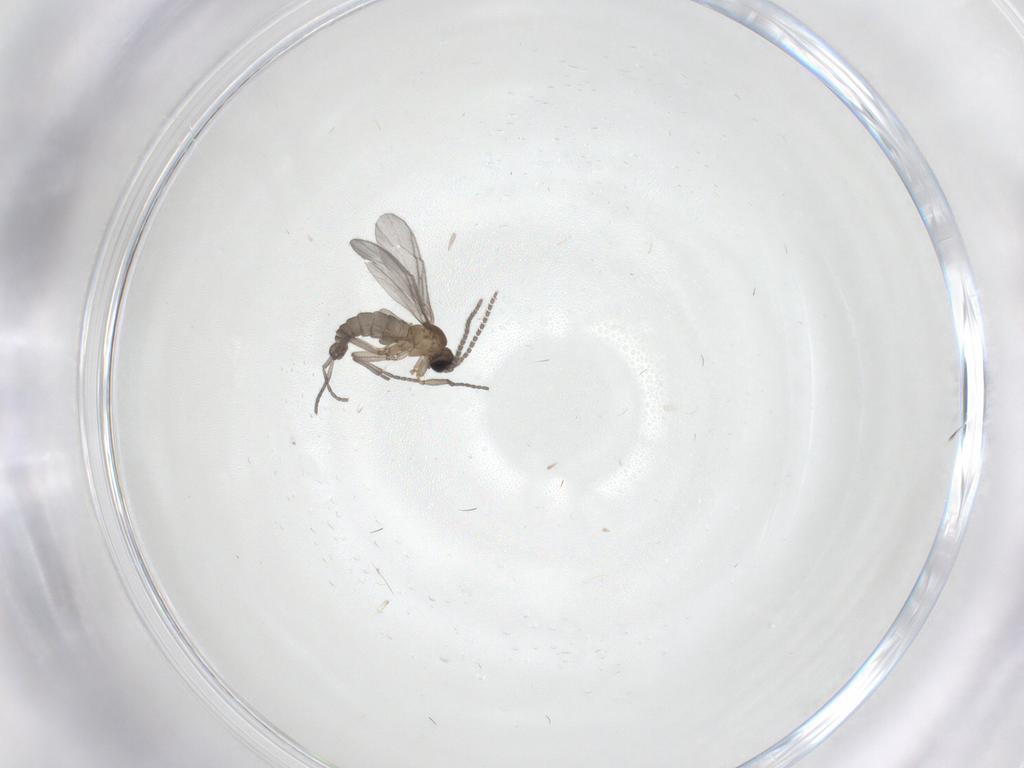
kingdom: Animalia
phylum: Arthropoda
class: Insecta
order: Diptera
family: Sciaridae
